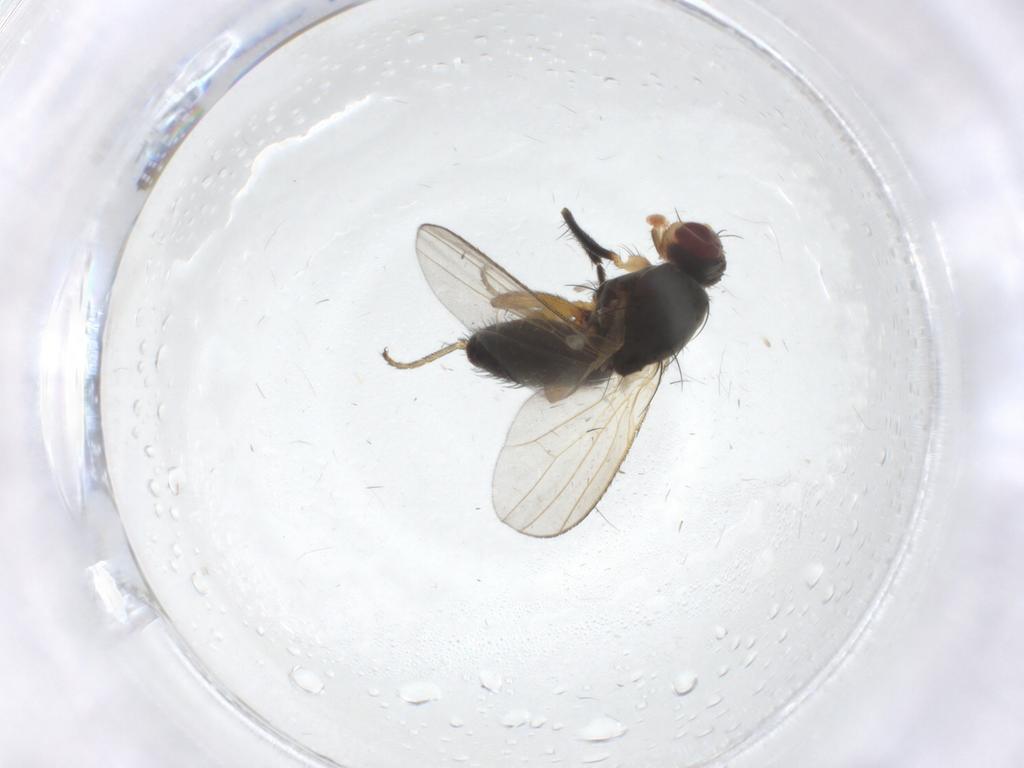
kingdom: Animalia
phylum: Arthropoda
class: Insecta
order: Diptera
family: Heleomyzidae
